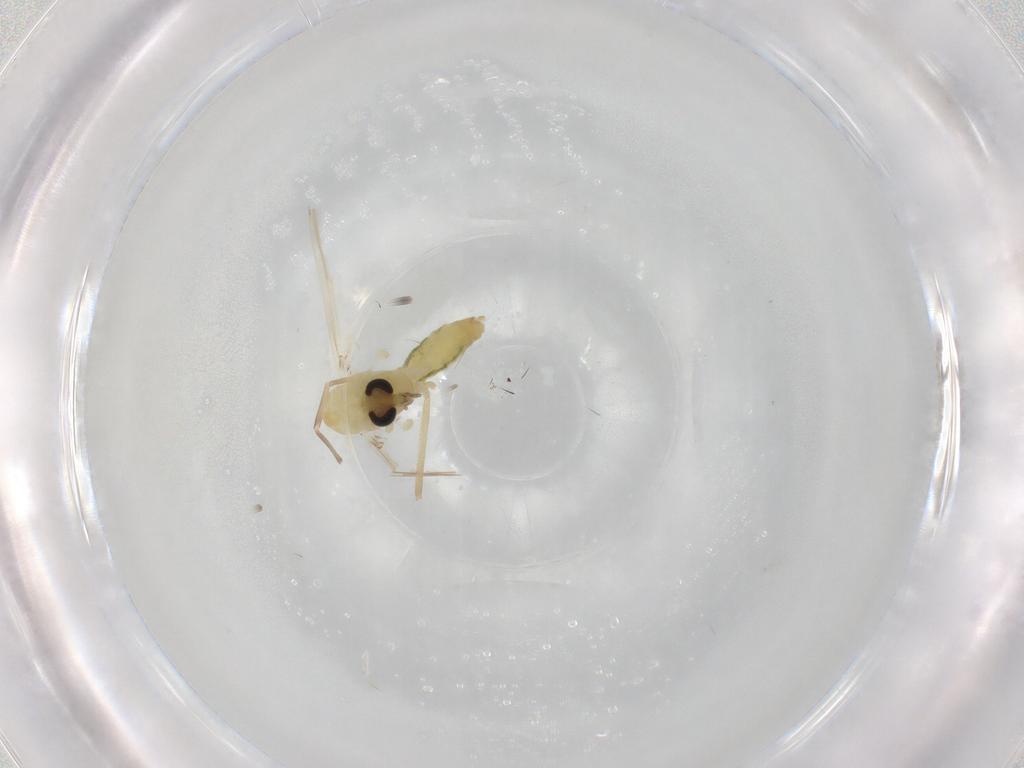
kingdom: Animalia
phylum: Arthropoda
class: Insecta
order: Diptera
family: Chironomidae
